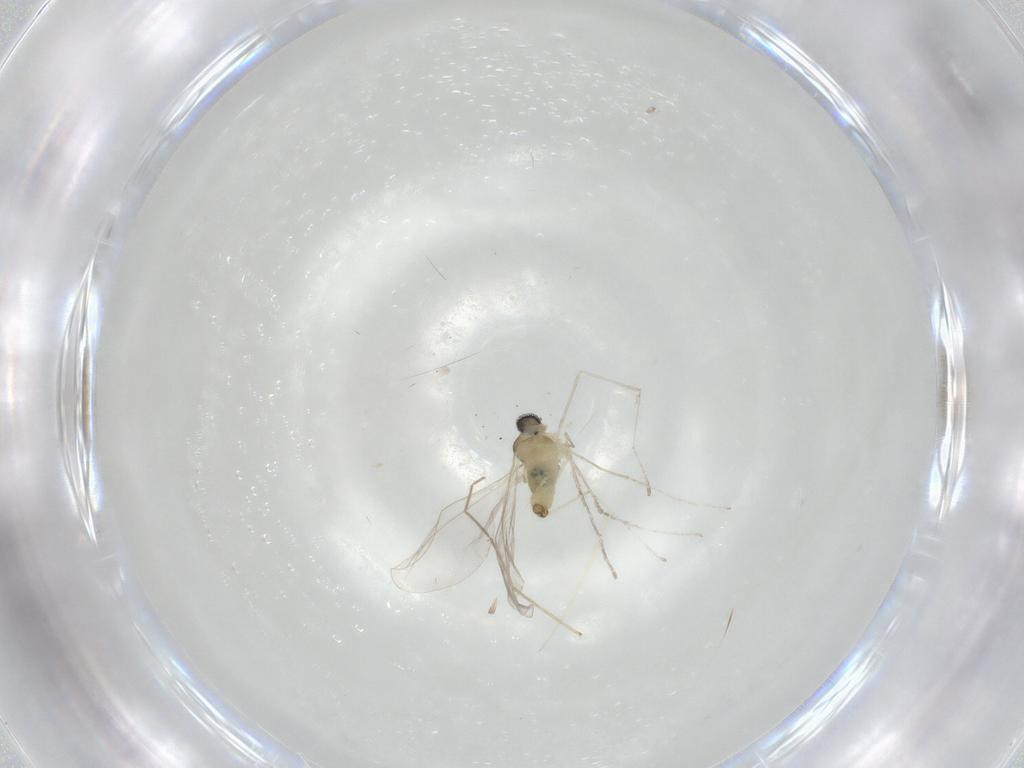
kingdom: Animalia
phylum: Arthropoda
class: Insecta
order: Diptera
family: Cecidomyiidae
